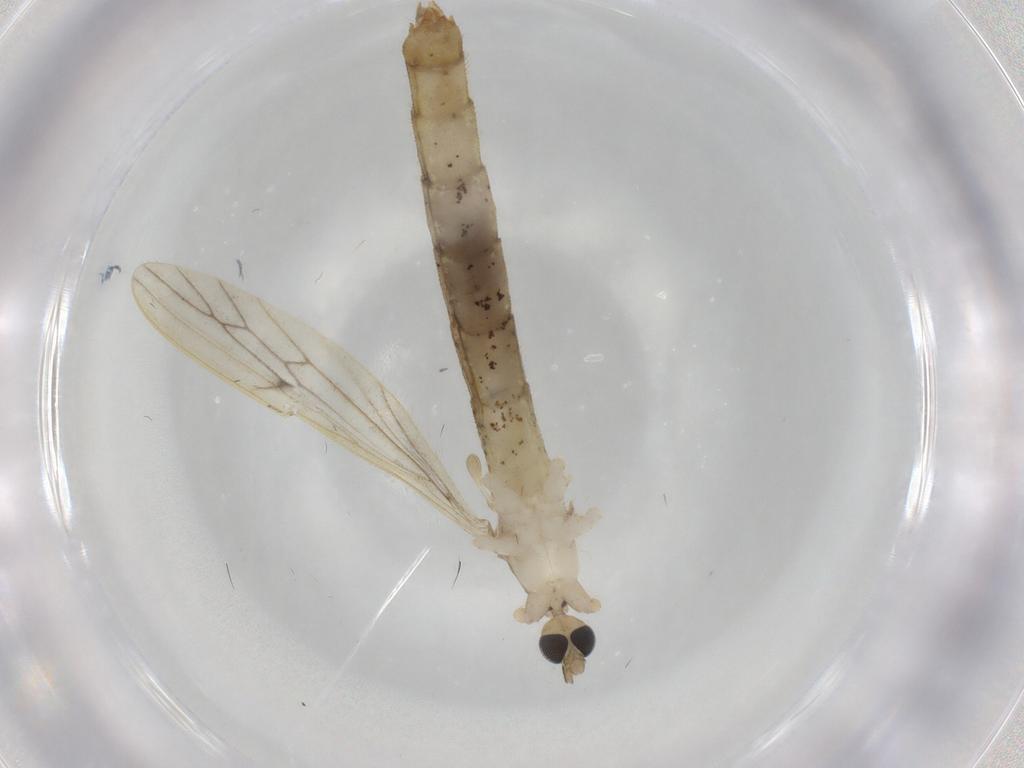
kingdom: Animalia
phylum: Arthropoda
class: Insecta
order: Diptera
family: Limoniidae
